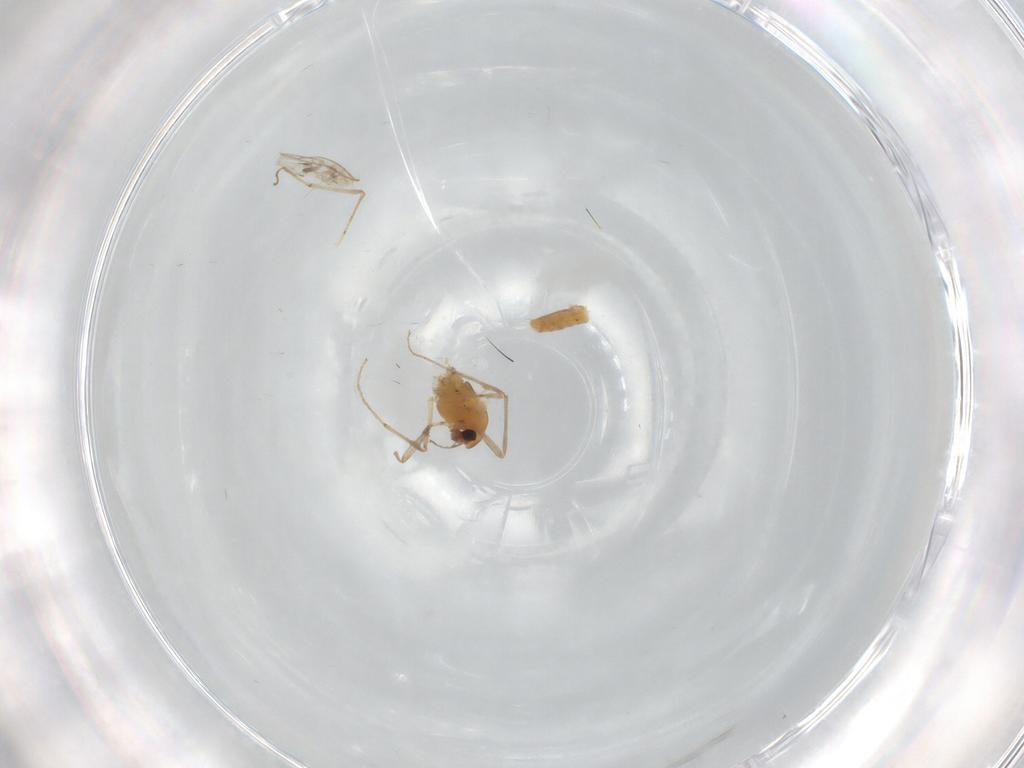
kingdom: Animalia
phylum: Arthropoda
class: Insecta
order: Diptera
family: Chironomidae
